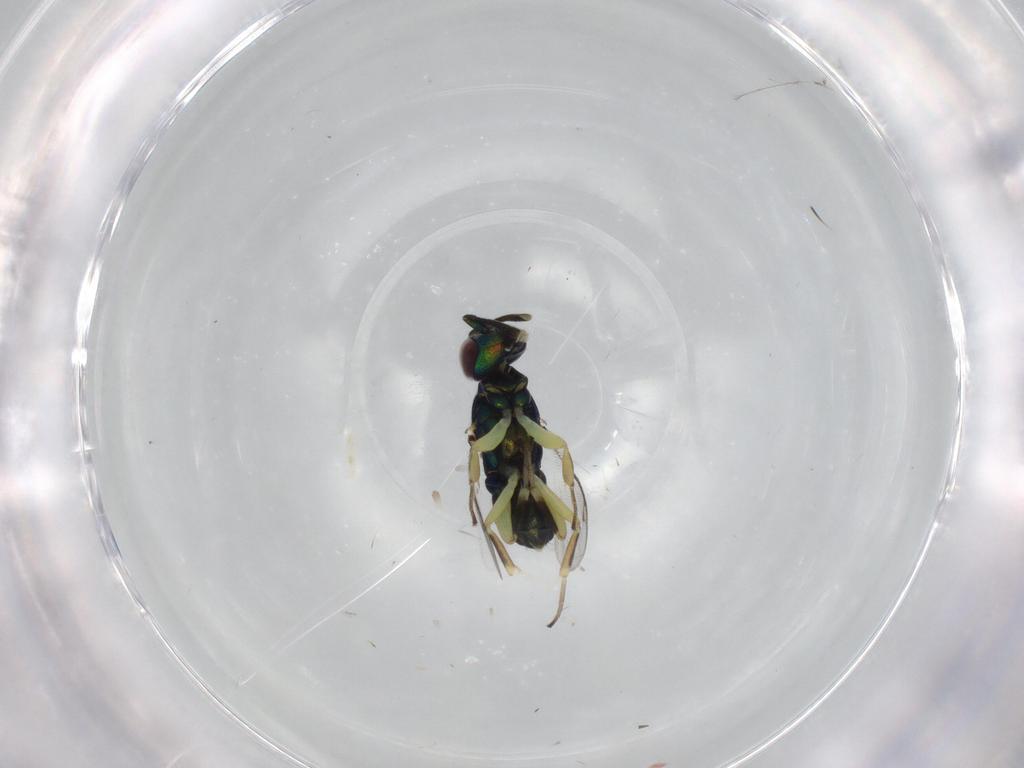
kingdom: Animalia
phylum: Arthropoda
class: Insecta
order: Hymenoptera
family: Eupelmidae
